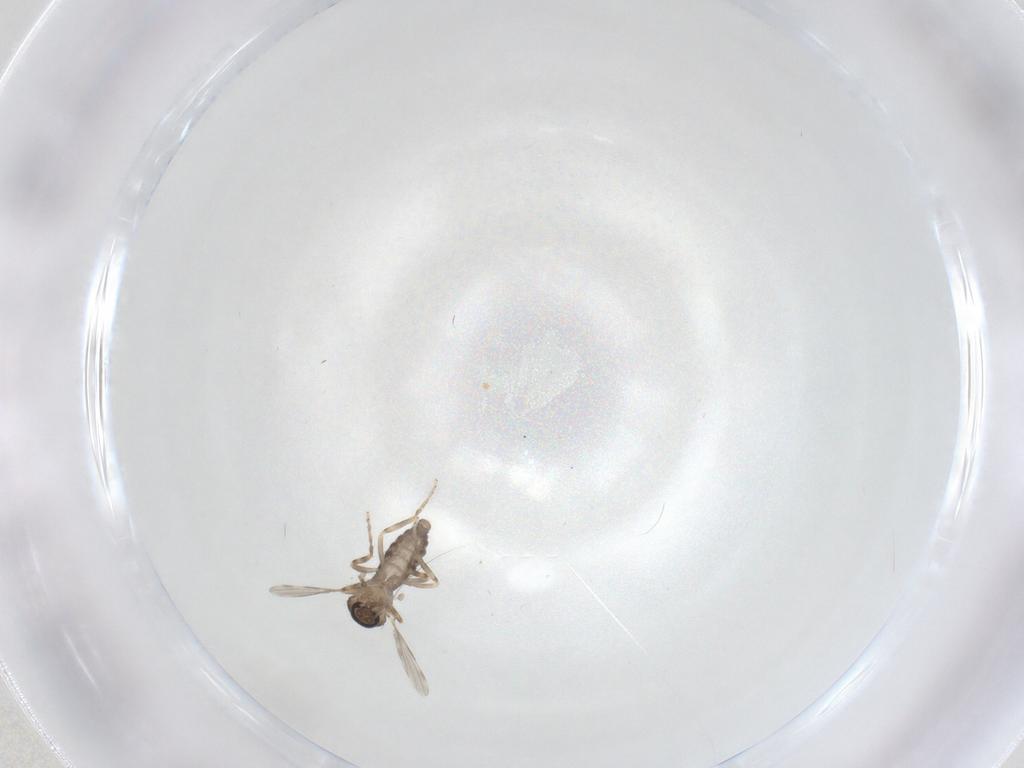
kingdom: Animalia
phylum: Arthropoda
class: Insecta
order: Diptera
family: Ceratopogonidae
